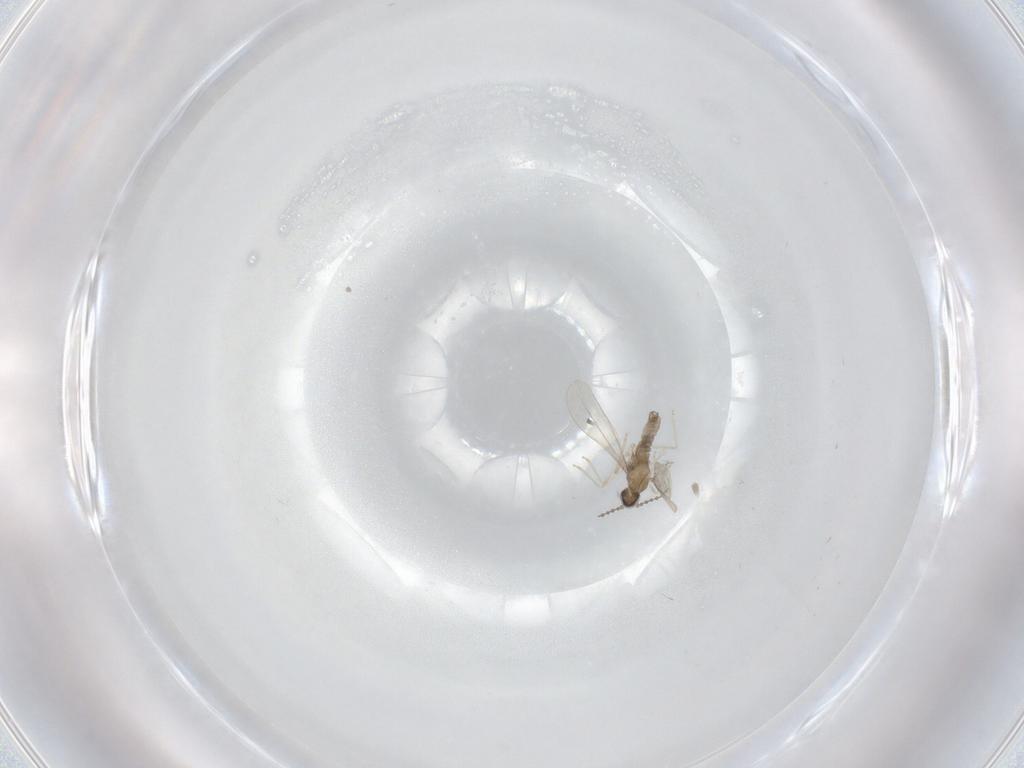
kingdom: Animalia
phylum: Arthropoda
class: Insecta
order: Diptera
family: Cecidomyiidae
